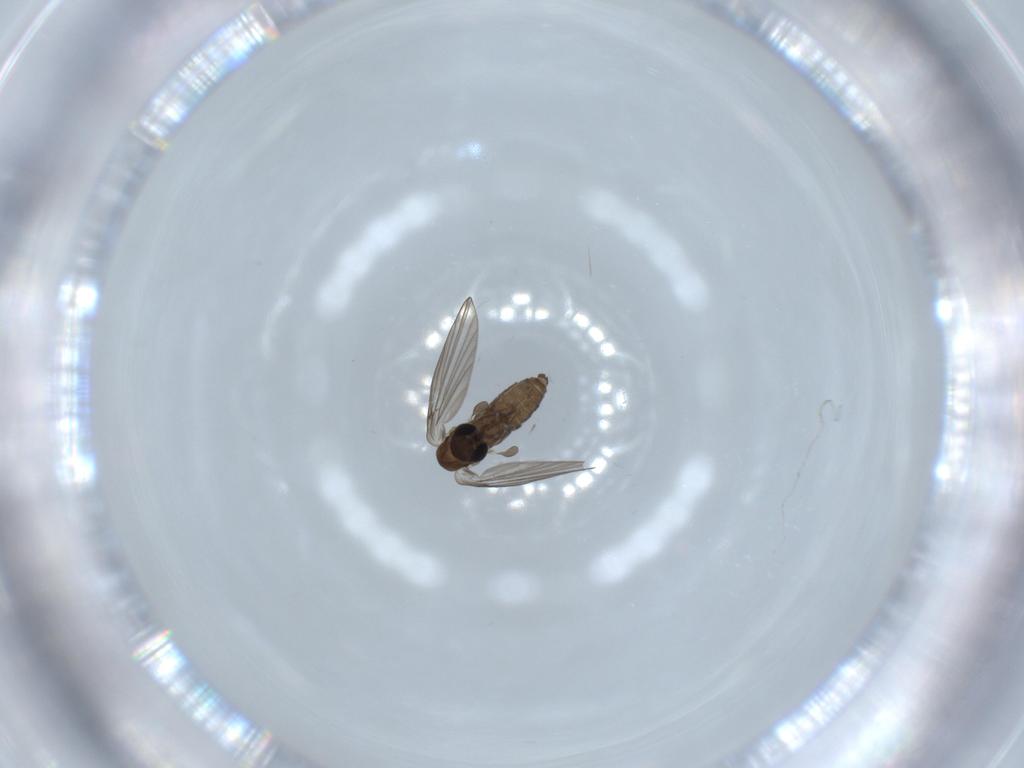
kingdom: Animalia
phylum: Arthropoda
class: Insecta
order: Diptera
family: Psychodidae
